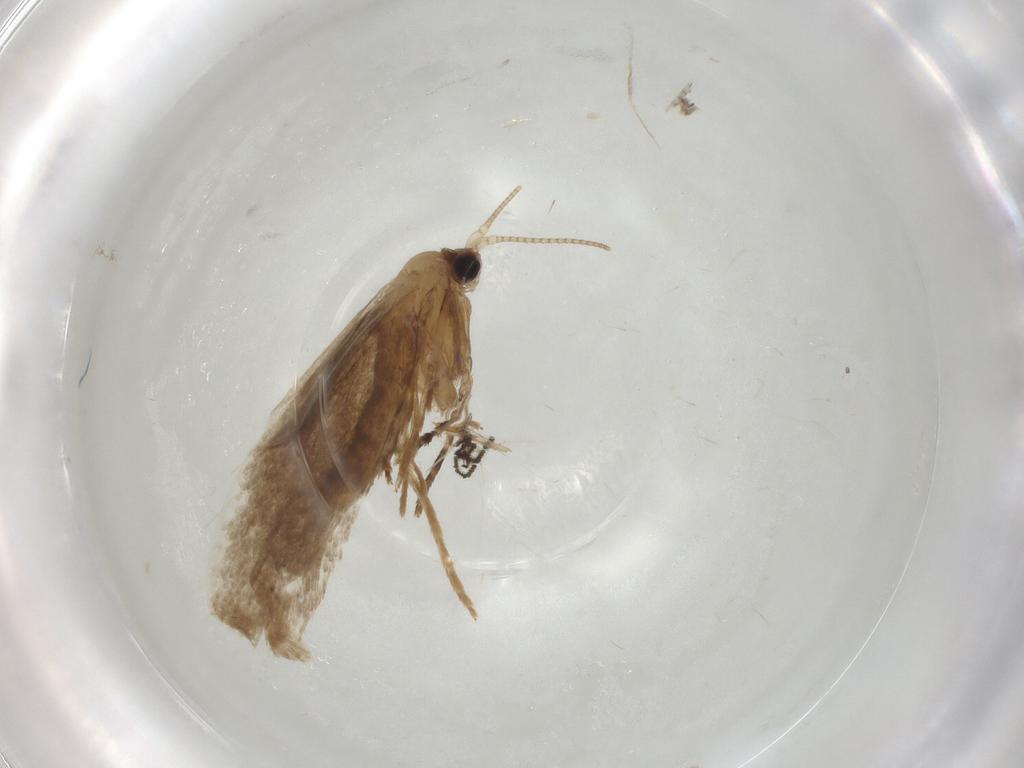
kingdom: Animalia
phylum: Arthropoda
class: Insecta
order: Lepidoptera
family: Nepticulidae
